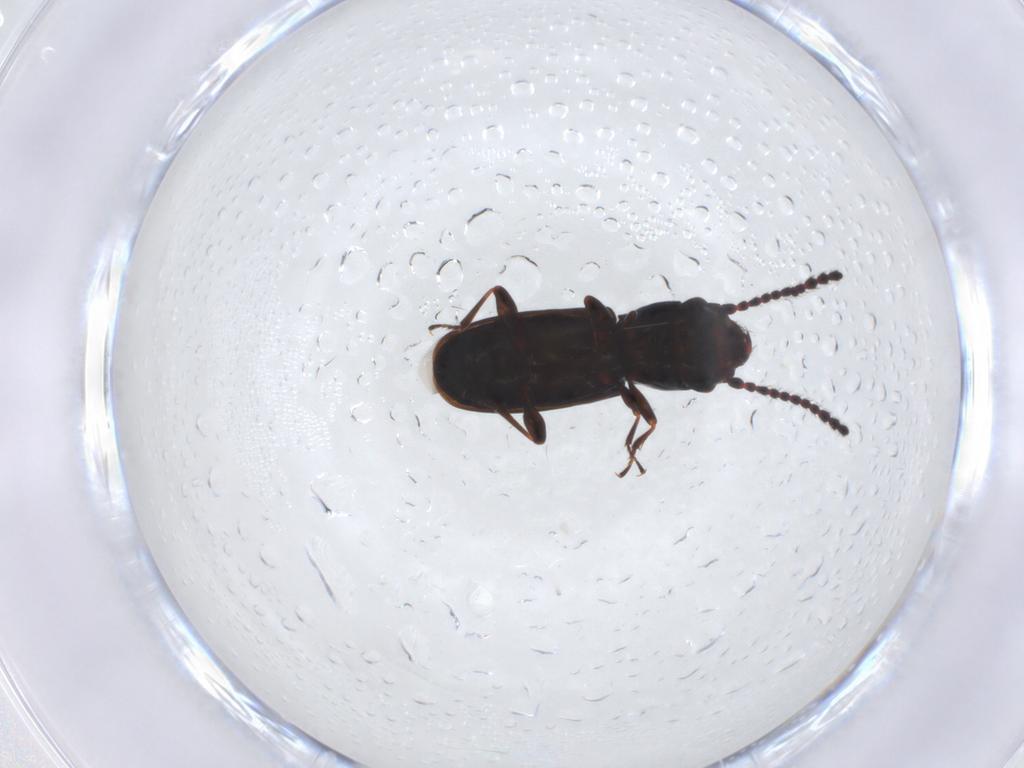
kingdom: Animalia
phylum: Arthropoda
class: Insecta
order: Coleoptera
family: Laemophloeidae
